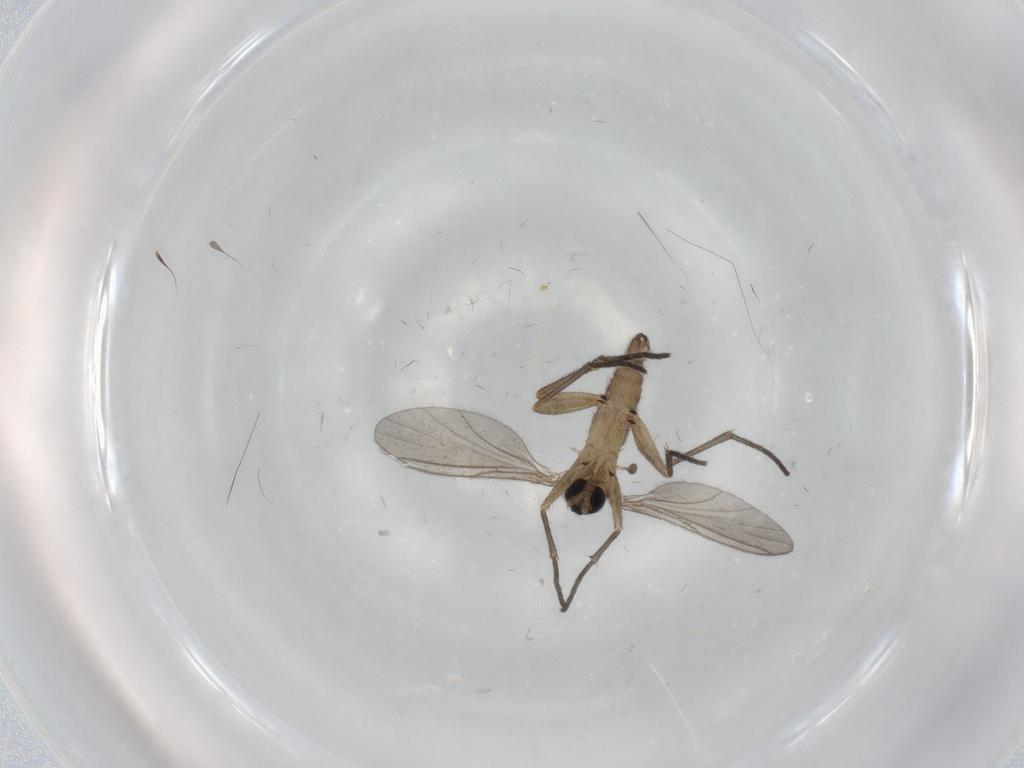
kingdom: Animalia
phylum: Arthropoda
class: Insecta
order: Diptera
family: Sciaridae
